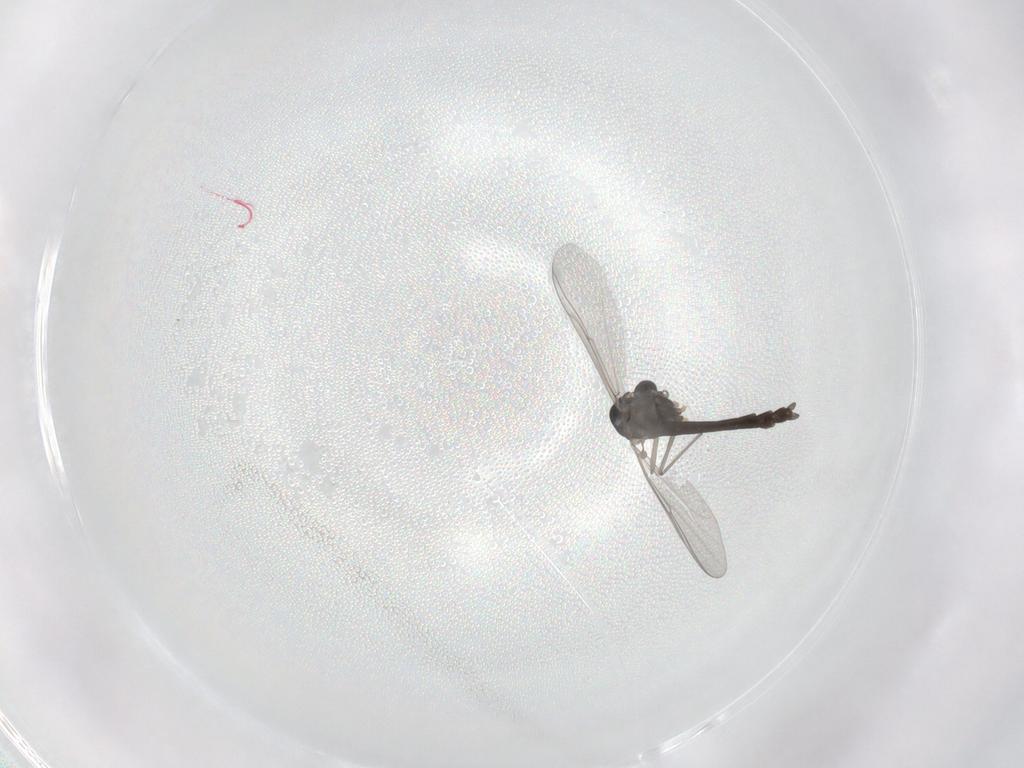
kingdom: Animalia
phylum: Arthropoda
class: Insecta
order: Diptera
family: Chironomidae
